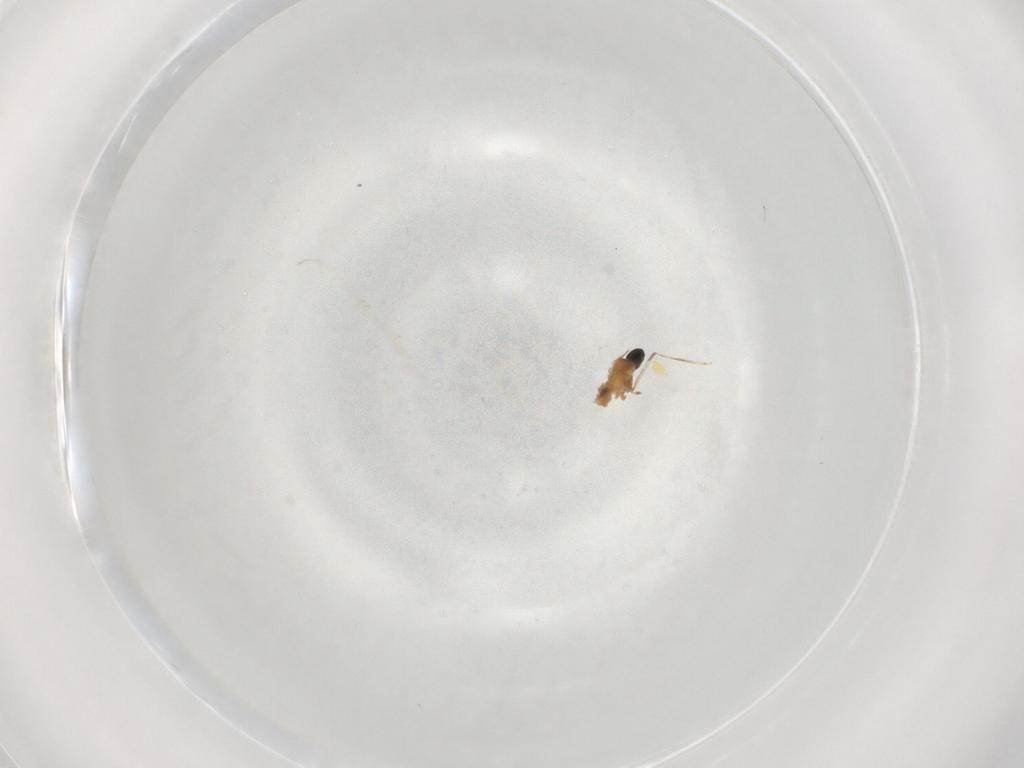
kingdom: Animalia
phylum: Arthropoda
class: Insecta
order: Diptera
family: Cecidomyiidae
